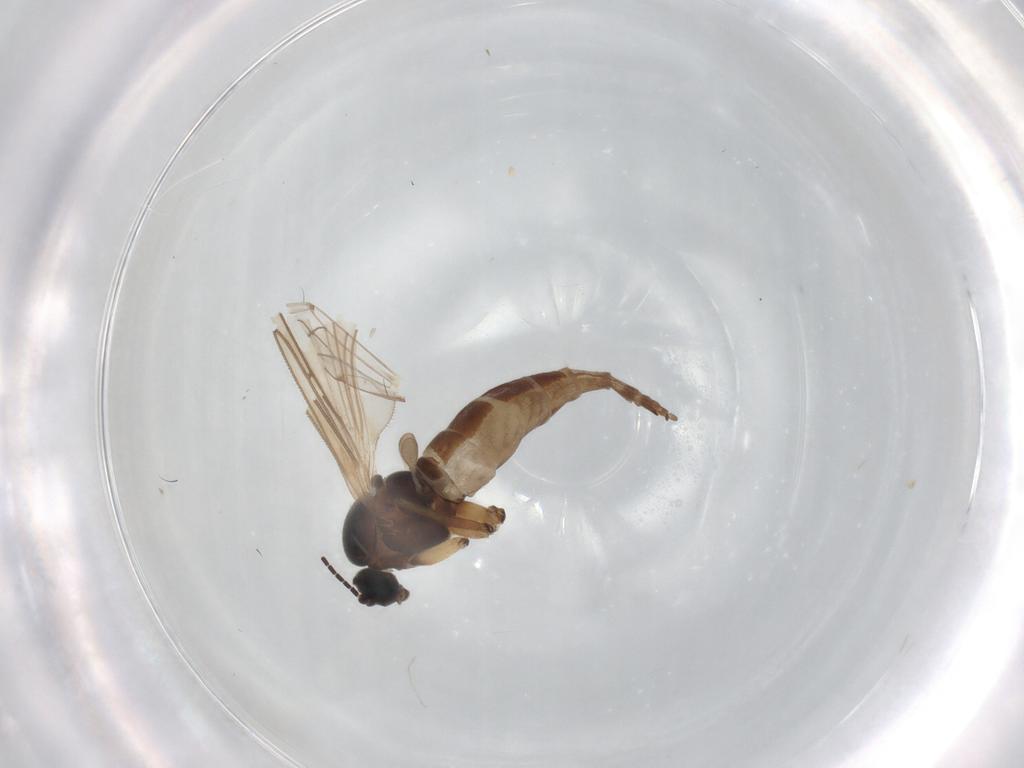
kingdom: Animalia
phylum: Arthropoda
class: Insecta
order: Diptera
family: Sciaridae
